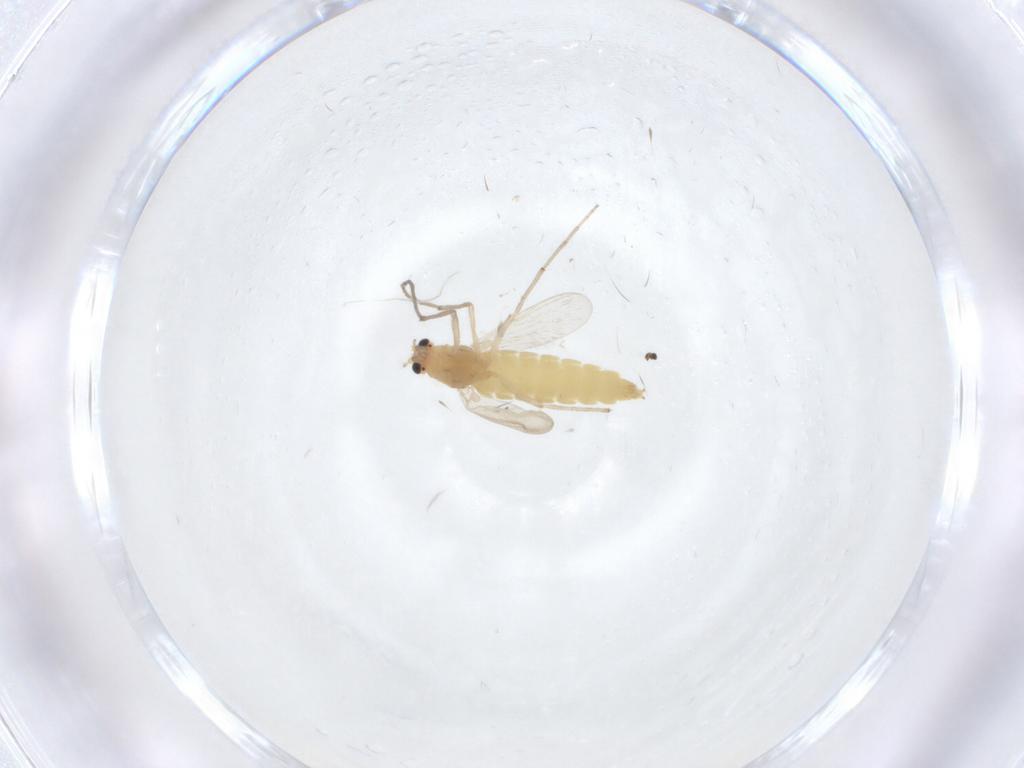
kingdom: Animalia
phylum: Arthropoda
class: Insecta
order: Diptera
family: Chironomidae
